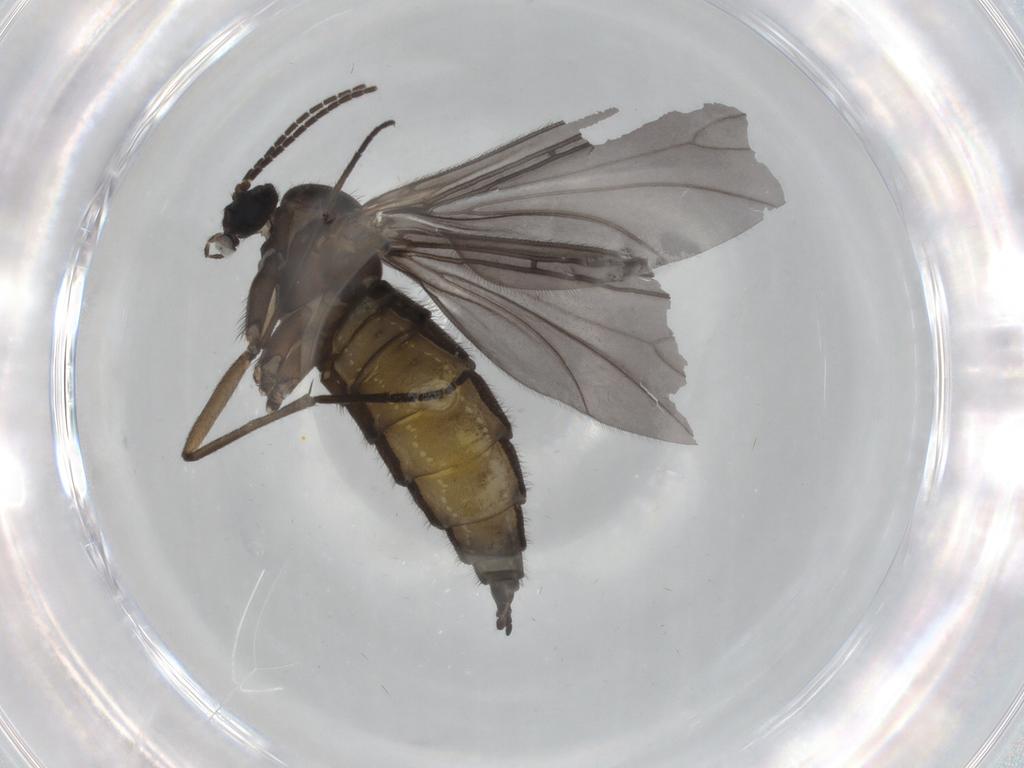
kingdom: Animalia
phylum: Arthropoda
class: Insecta
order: Diptera
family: Sciaridae
